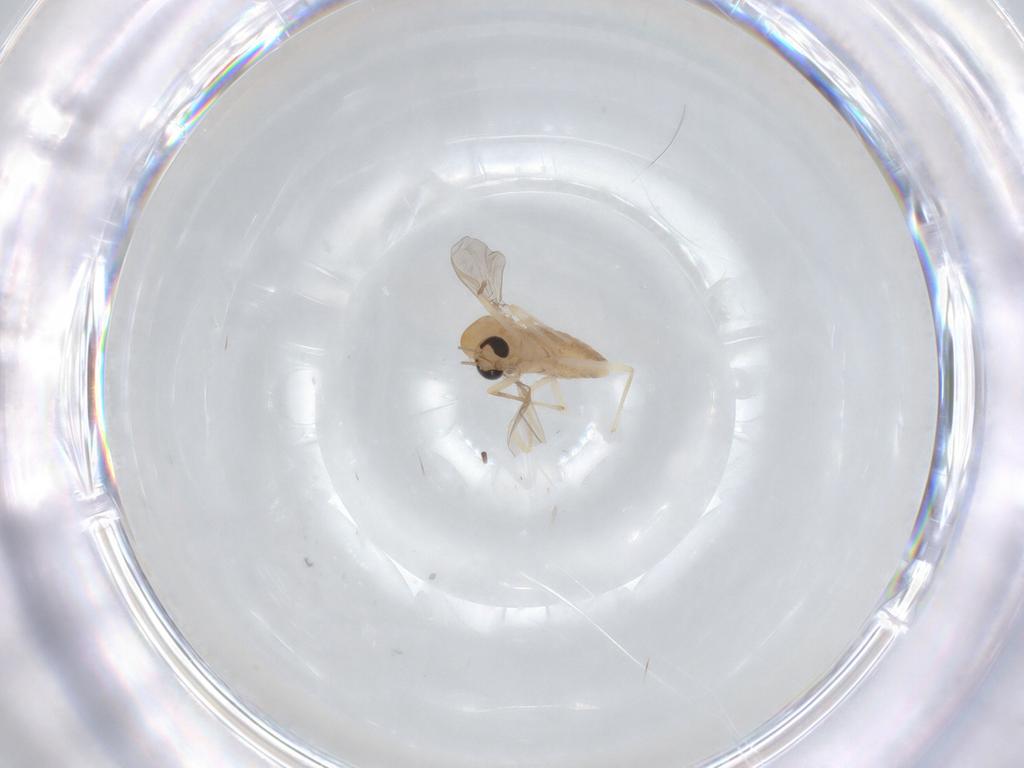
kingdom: Animalia
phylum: Arthropoda
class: Insecta
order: Diptera
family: Chironomidae
